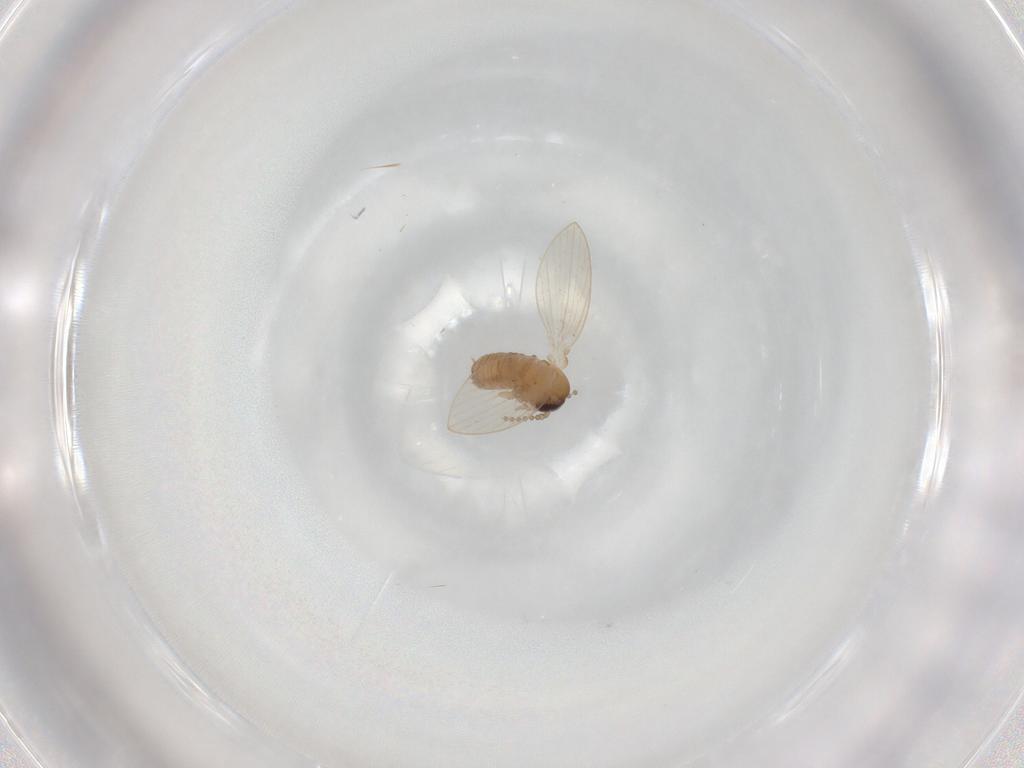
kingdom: Animalia
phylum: Arthropoda
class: Insecta
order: Diptera
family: Psychodidae
